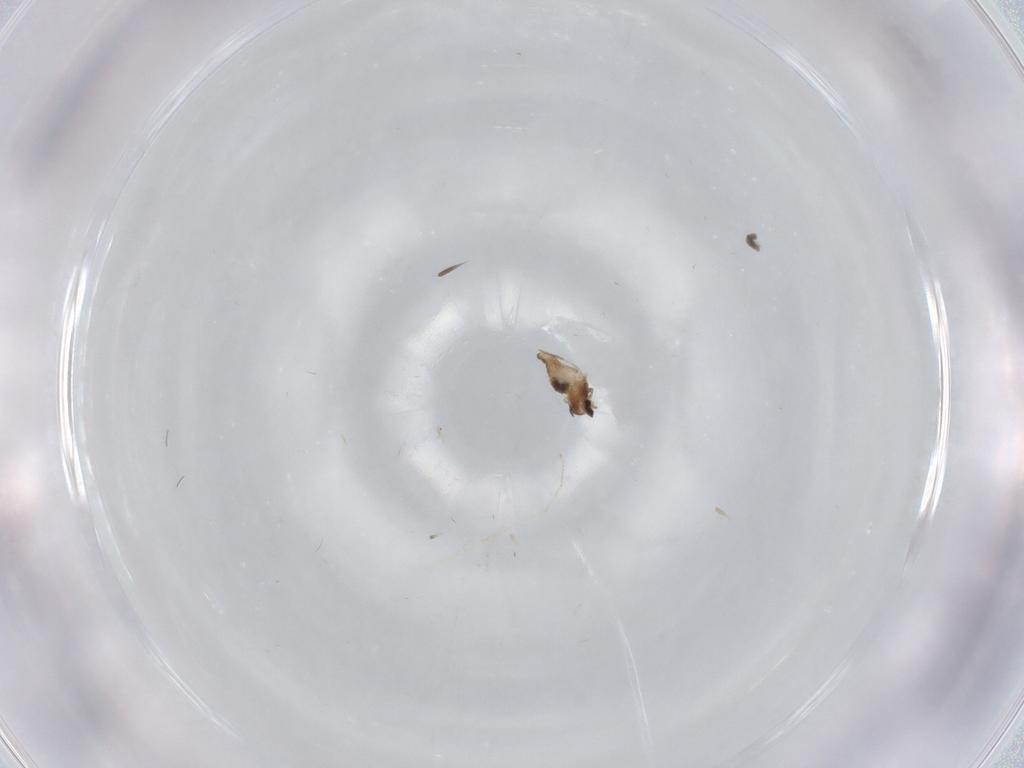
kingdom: Animalia
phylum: Arthropoda
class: Insecta
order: Diptera
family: Cecidomyiidae
